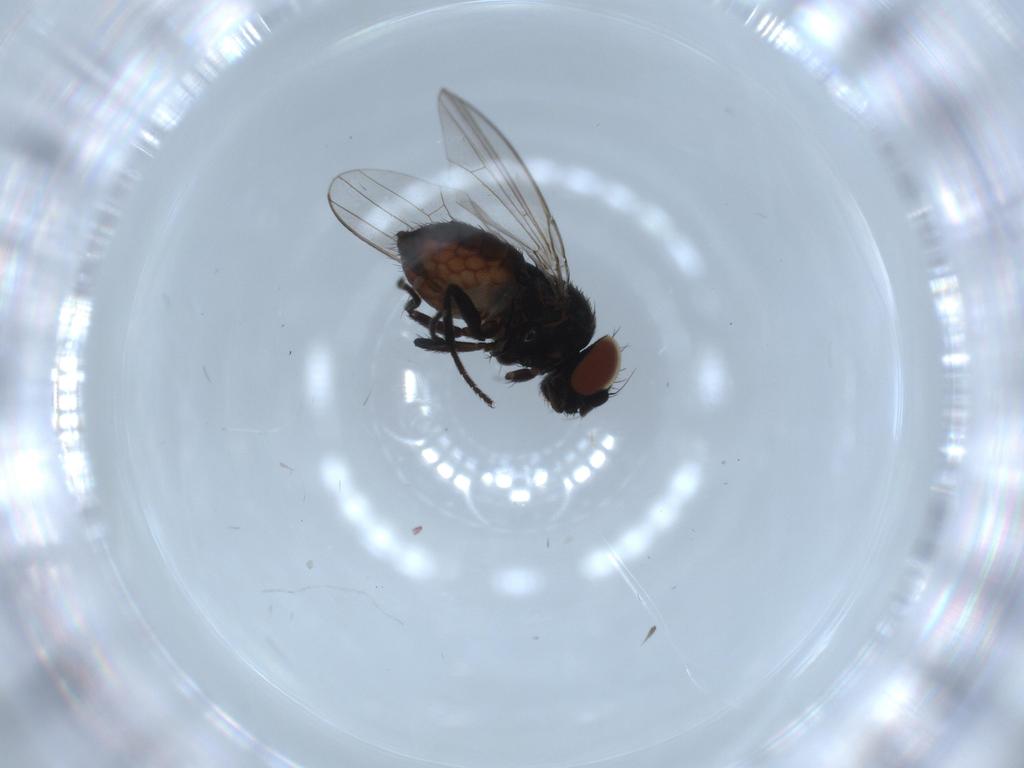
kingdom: Animalia
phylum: Arthropoda
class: Insecta
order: Diptera
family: Milichiidae
